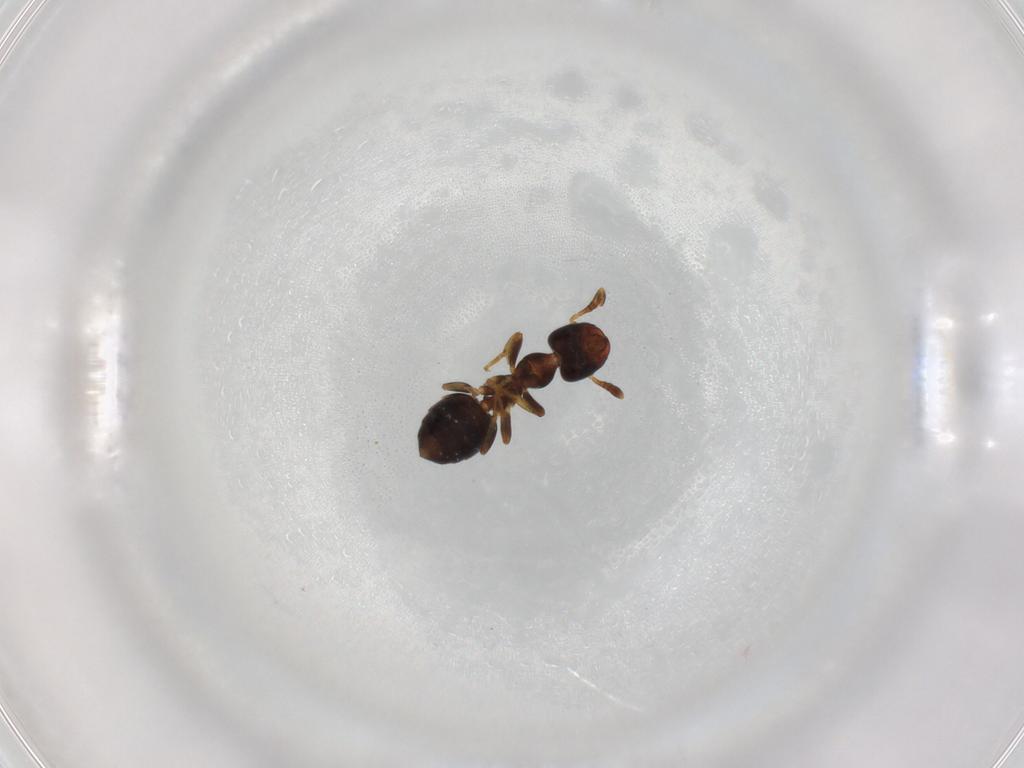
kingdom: Animalia
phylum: Arthropoda
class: Insecta
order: Hymenoptera
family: Formicidae
